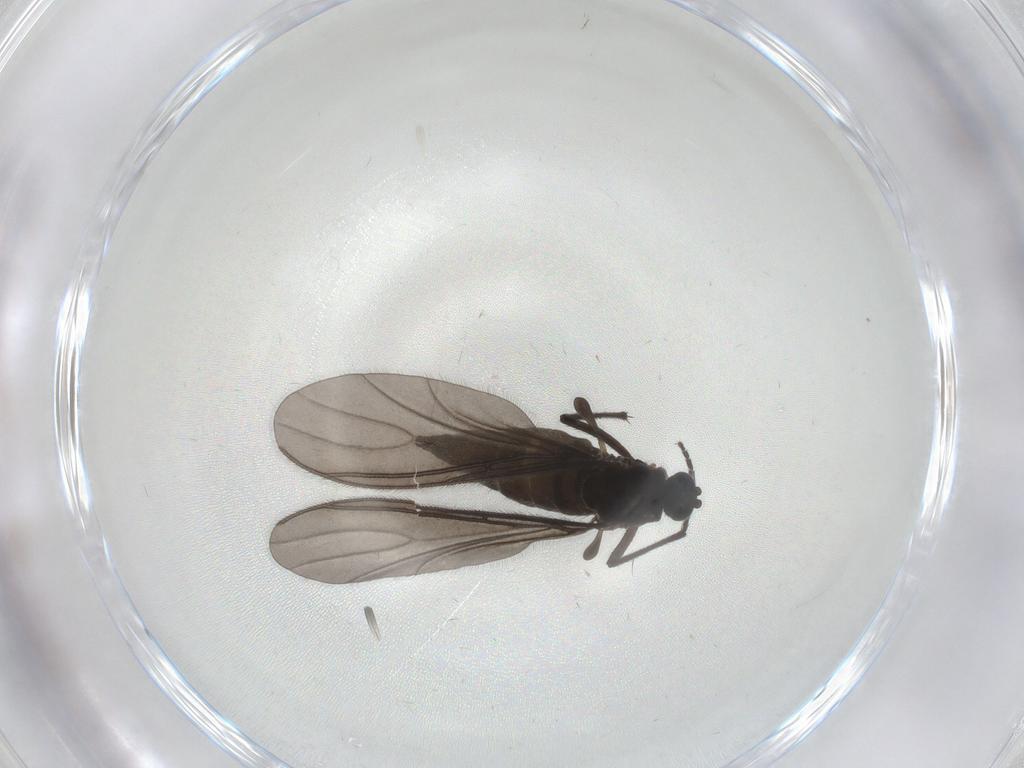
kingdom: Animalia
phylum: Arthropoda
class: Insecta
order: Diptera
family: Sciaridae
